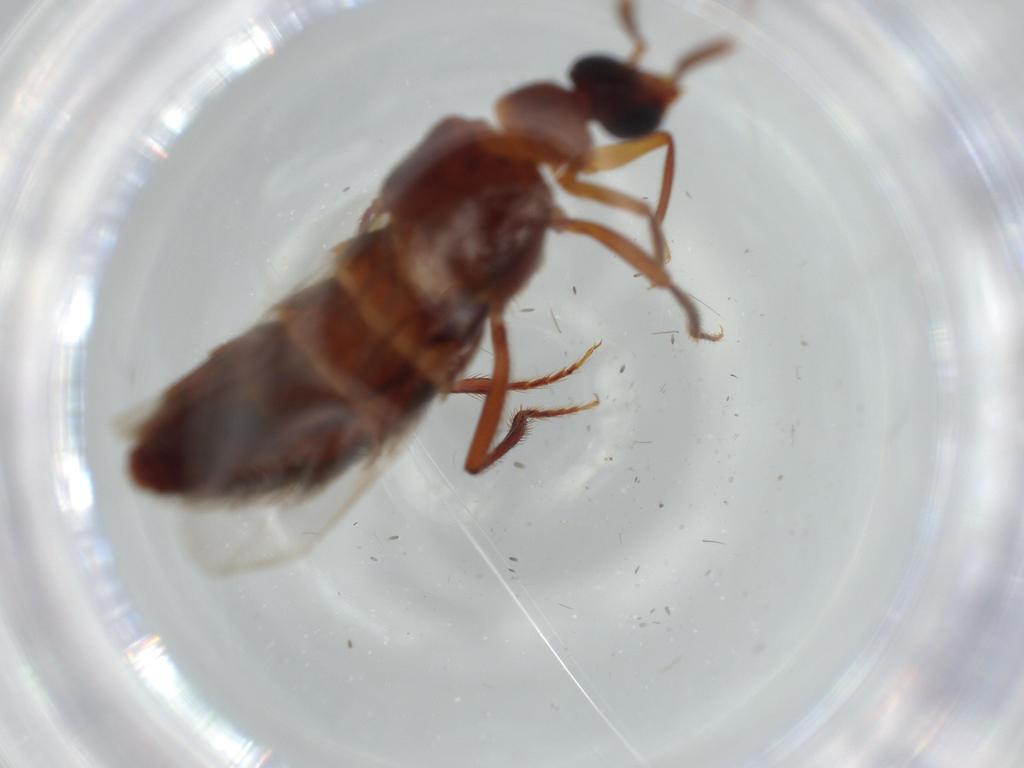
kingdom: Animalia
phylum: Arthropoda
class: Insecta
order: Coleoptera
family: Staphylinidae
